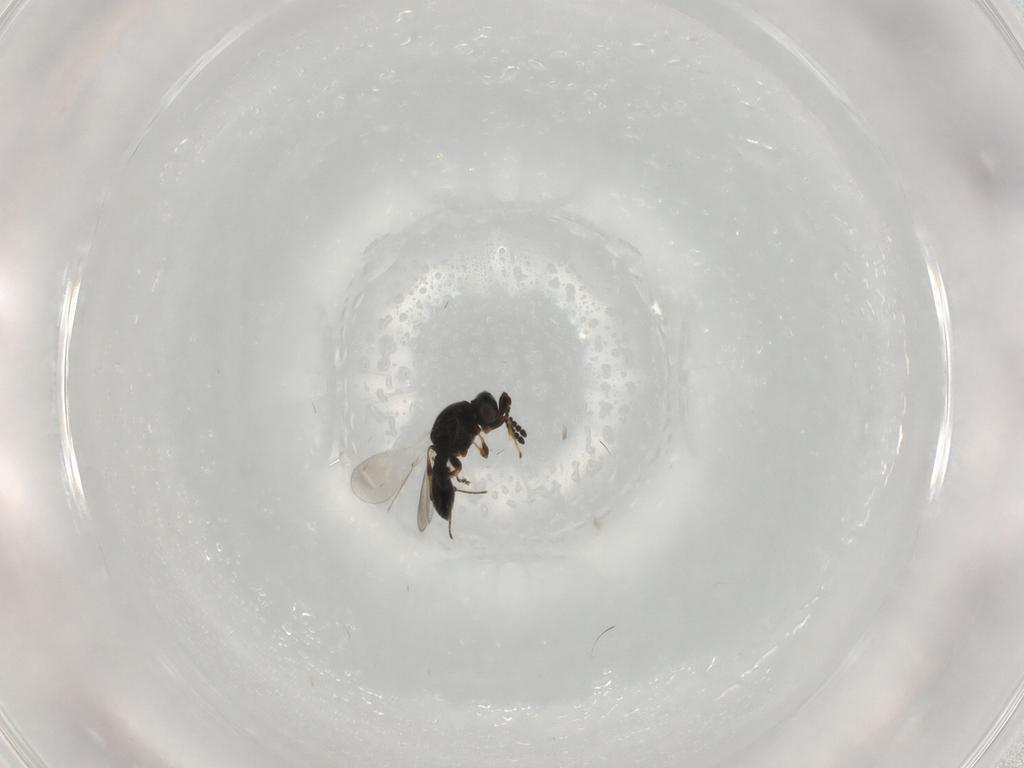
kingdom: Animalia
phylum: Arthropoda
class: Insecta
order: Hymenoptera
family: Platygastridae
